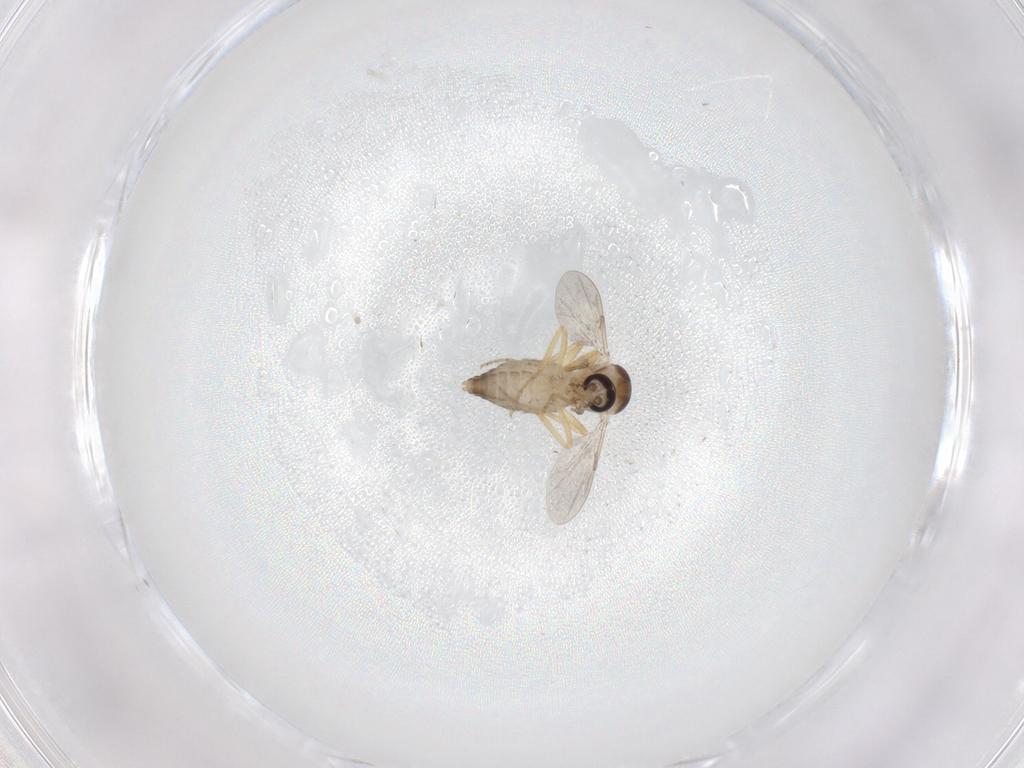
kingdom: Animalia
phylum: Arthropoda
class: Insecta
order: Diptera
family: Ceratopogonidae
